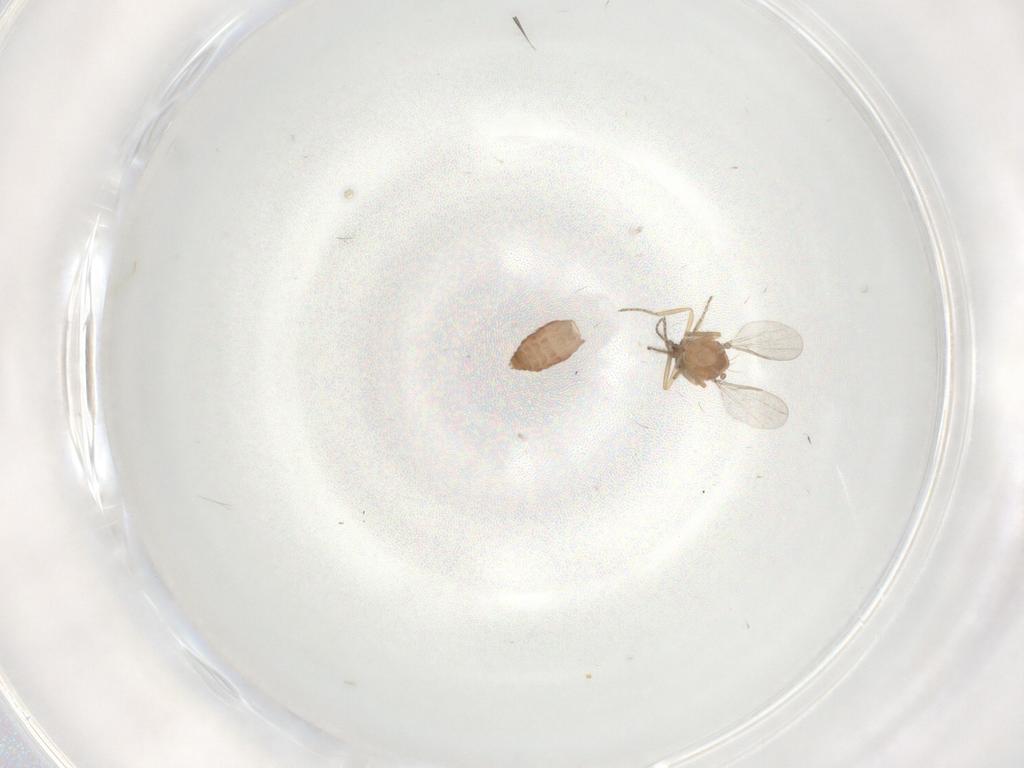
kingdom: Animalia
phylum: Arthropoda
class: Insecta
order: Diptera
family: Ceratopogonidae
